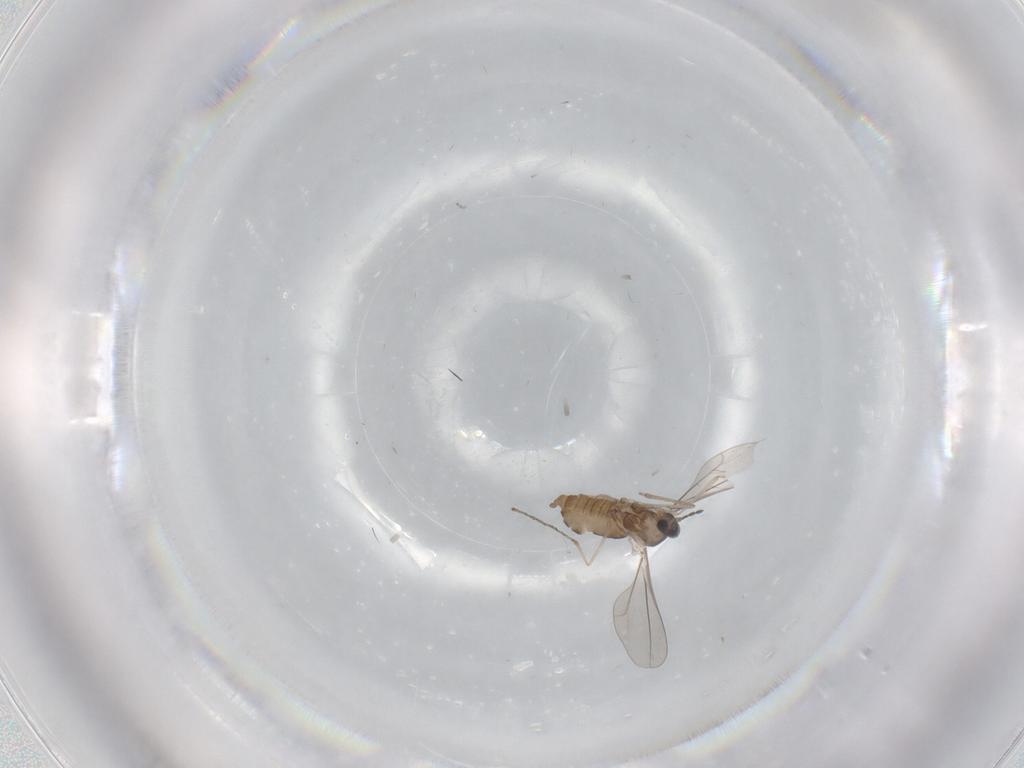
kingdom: Animalia
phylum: Arthropoda
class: Insecta
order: Diptera
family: Cecidomyiidae
